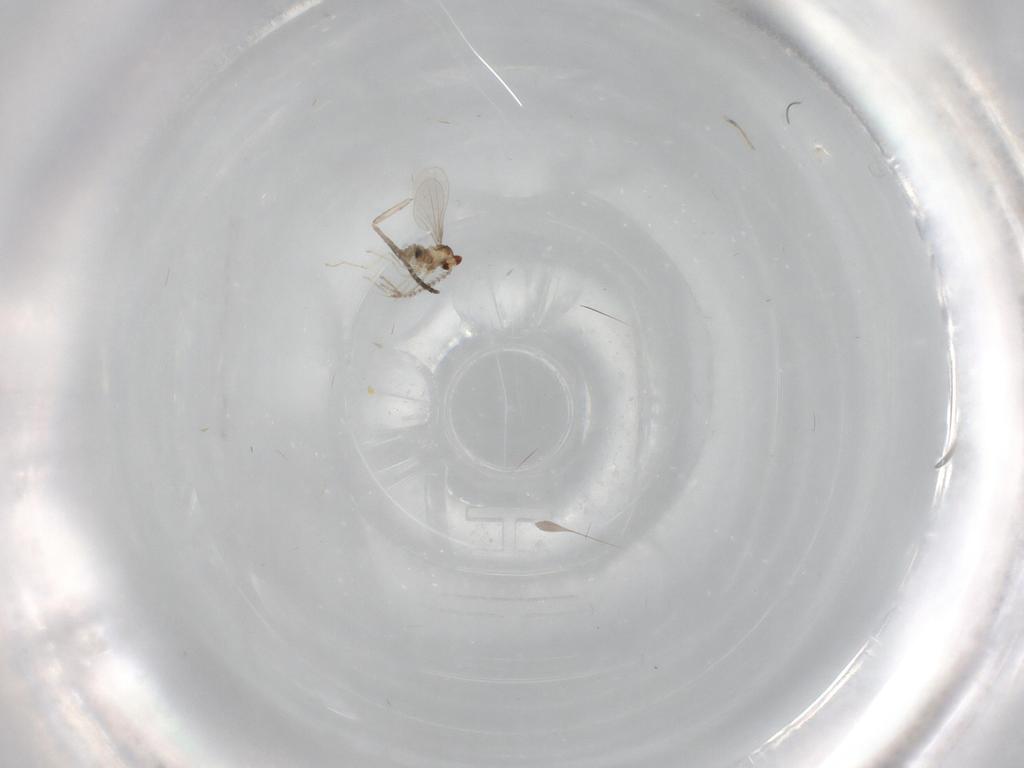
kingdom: Animalia
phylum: Arthropoda
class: Insecta
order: Diptera
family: Cecidomyiidae
